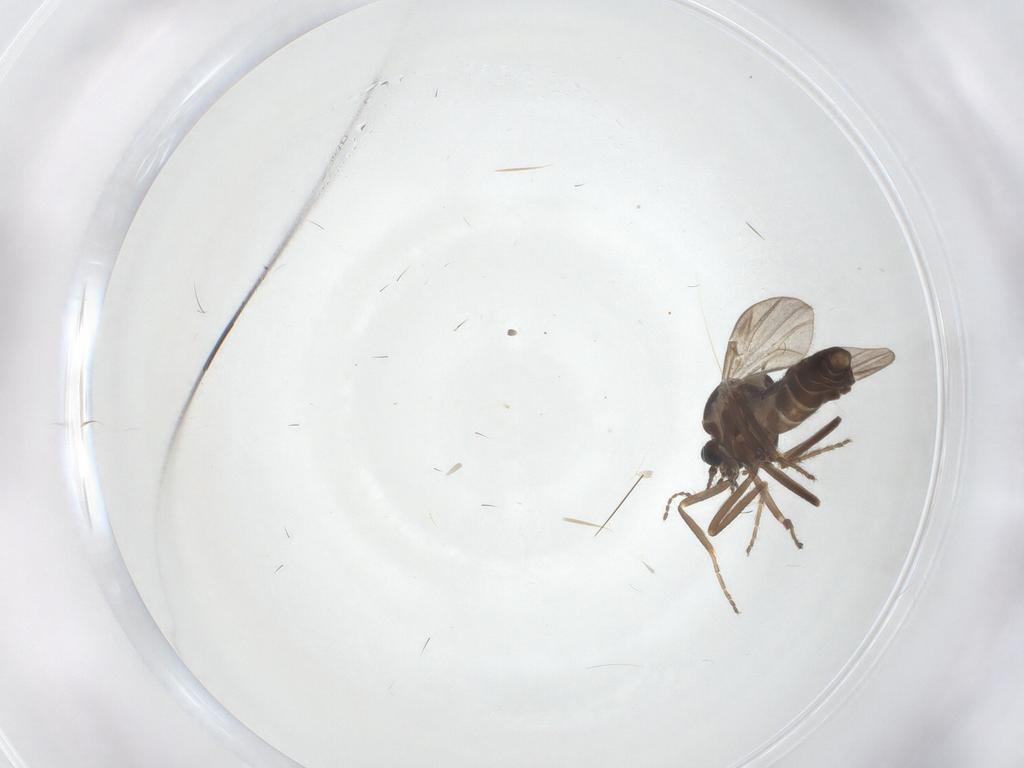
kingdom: Animalia
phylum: Arthropoda
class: Insecta
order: Diptera
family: Ceratopogonidae
